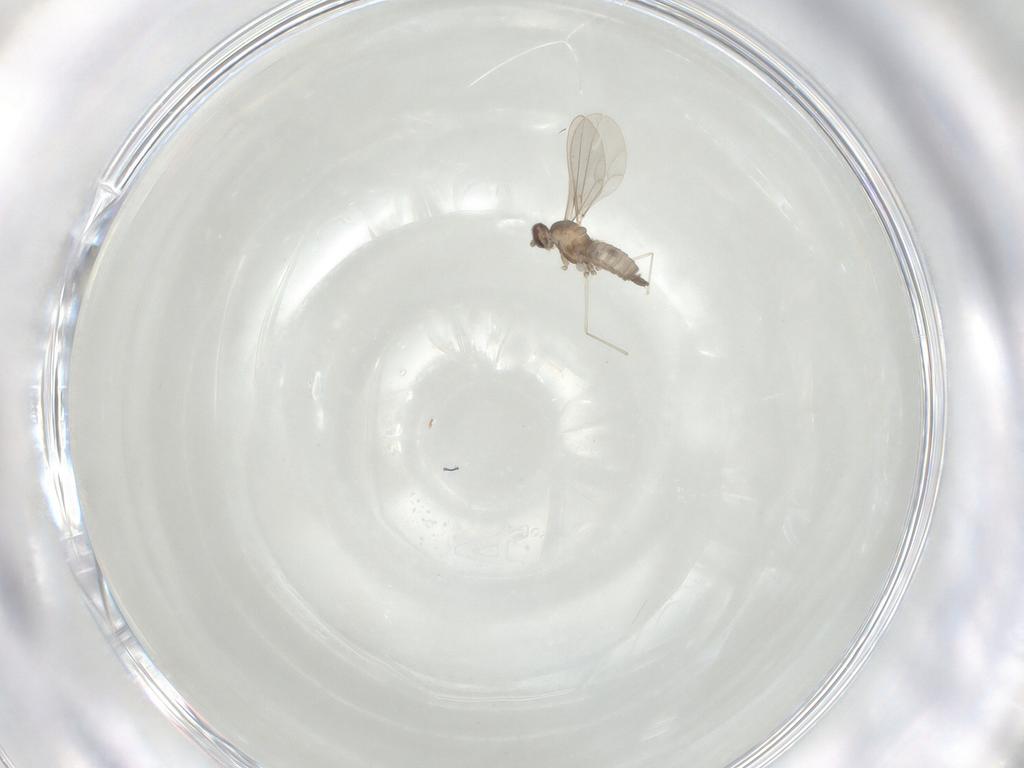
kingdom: Animalia
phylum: Arthropoda
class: Insecta
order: Diptera
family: Cecidomyiidae
